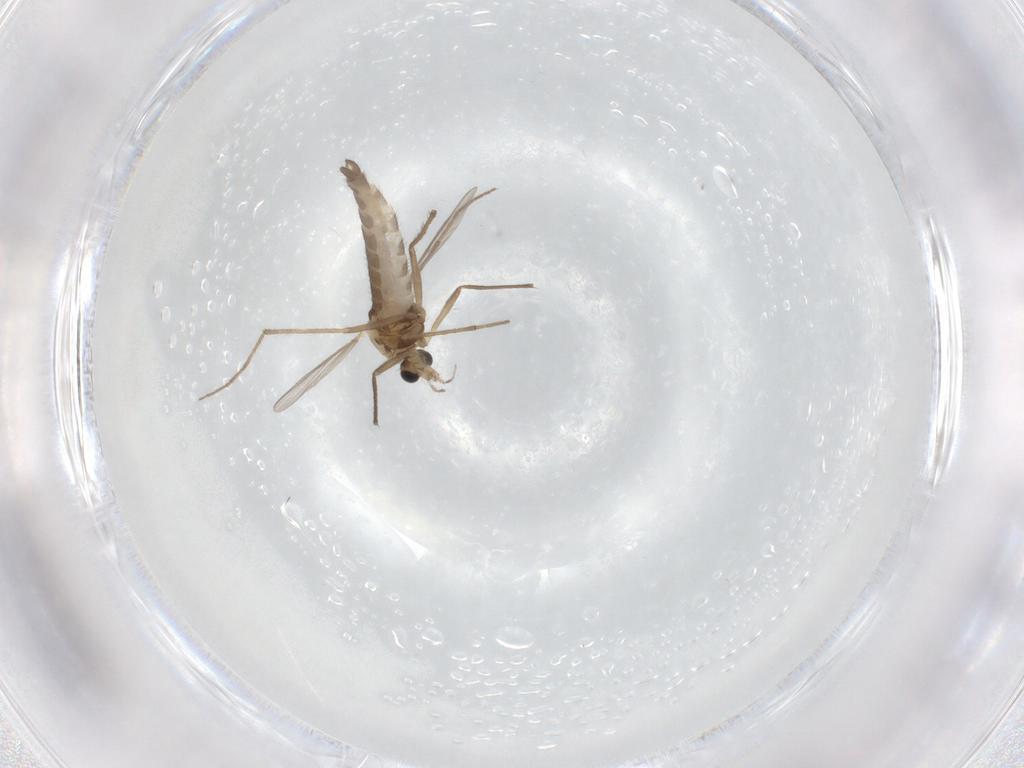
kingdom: Animalia
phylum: Arthropoda
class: Insecta
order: Diptera
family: Chironomidae
